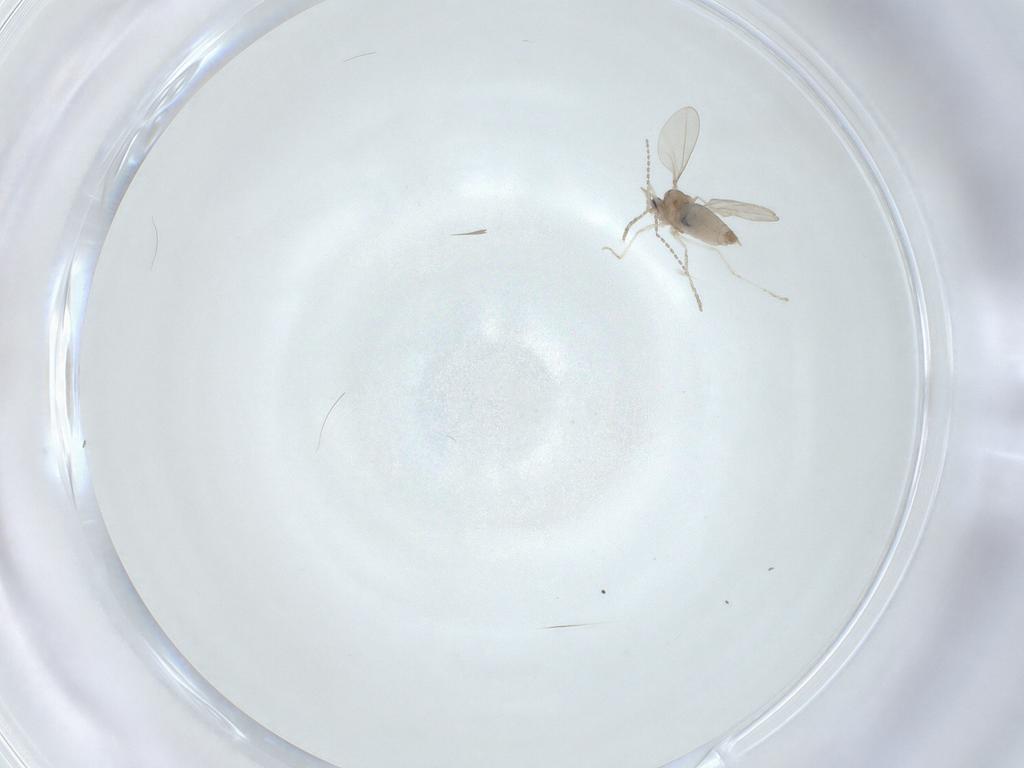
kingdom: Animalia
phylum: Arthropoda
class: Insecta
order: Diptera
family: Cecidomyiidae
